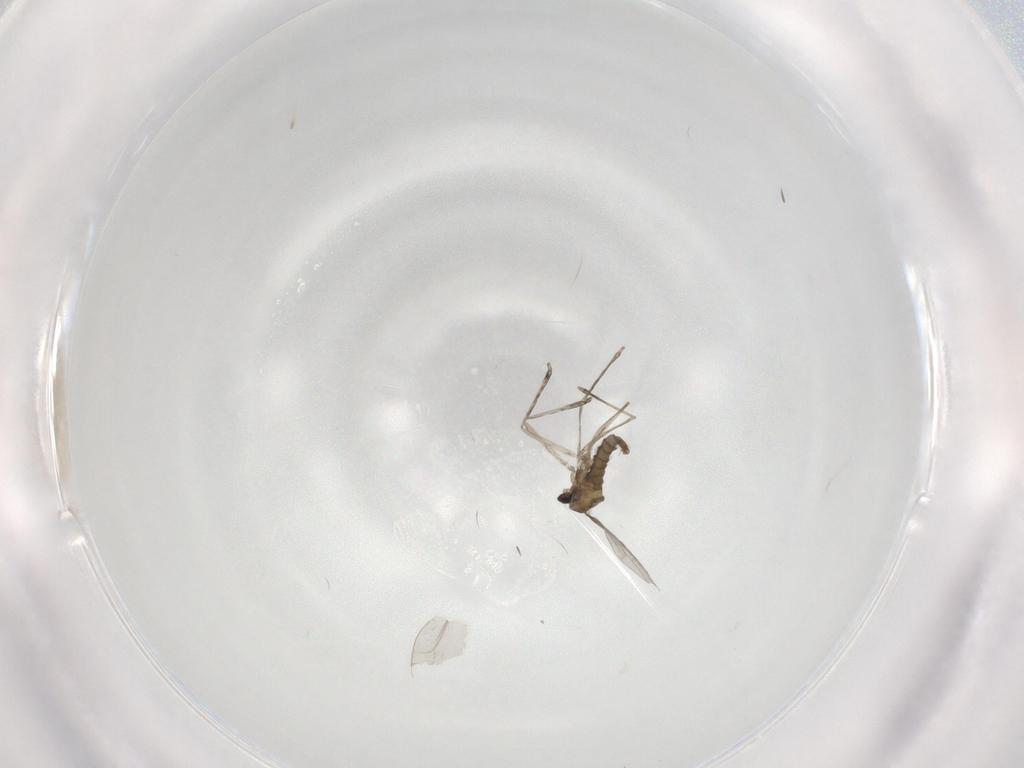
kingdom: Animalia
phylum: Arthropoda
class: Insecta
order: Diptera
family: Cecidomyiidae
